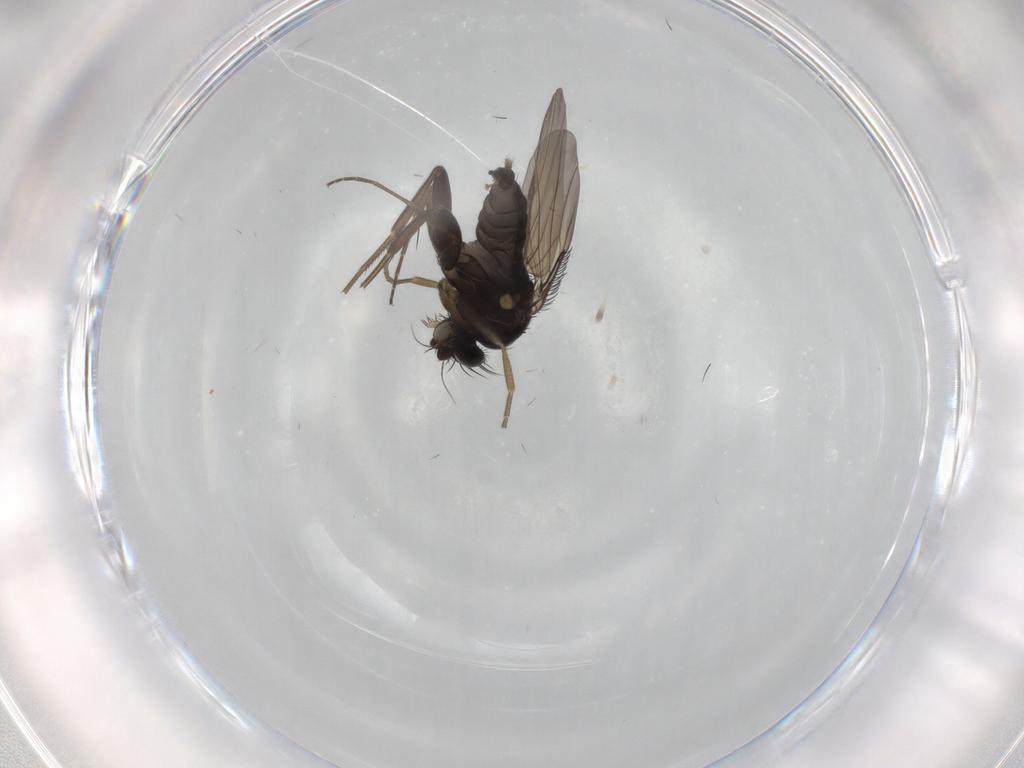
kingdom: Animalia
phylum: Arthropoda
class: Insecta
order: Diptera
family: Phoridae
